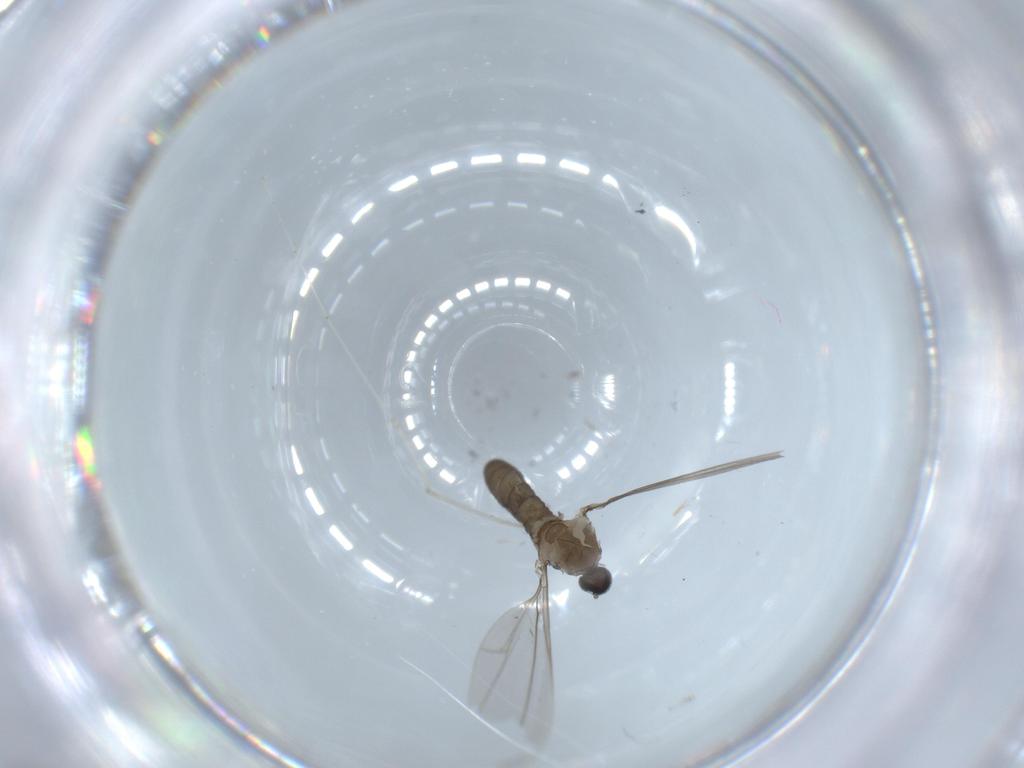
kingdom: Animalia
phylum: Arthropoda
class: Insecta
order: Diptera
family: Cecidomyiidae
